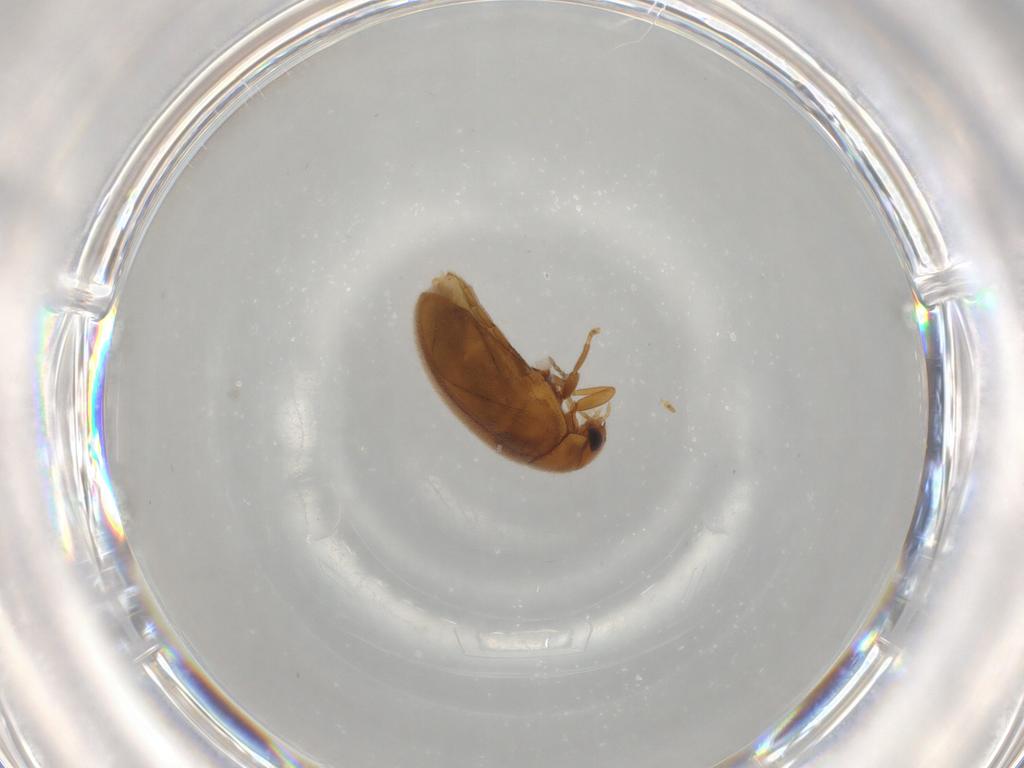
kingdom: Animalia
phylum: Arthropoda
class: Insecta
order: Coleoptera
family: Scirtidae
